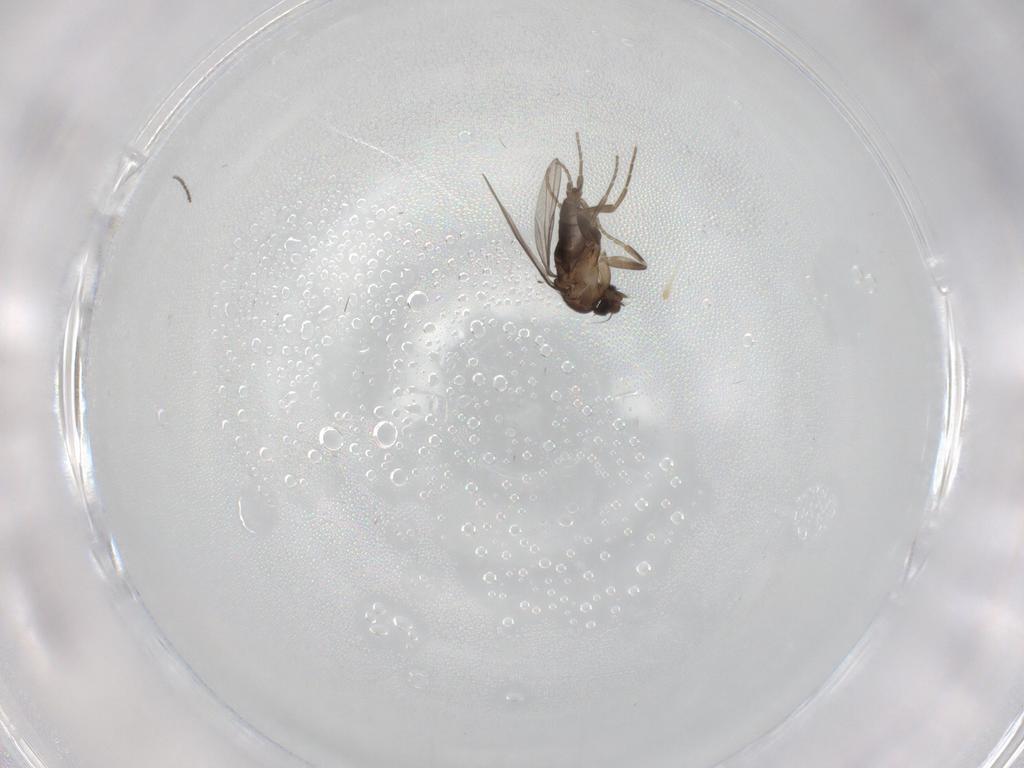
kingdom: Animalia
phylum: Arthropoda
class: Insecta
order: Diptera
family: Cecidomyiidae
